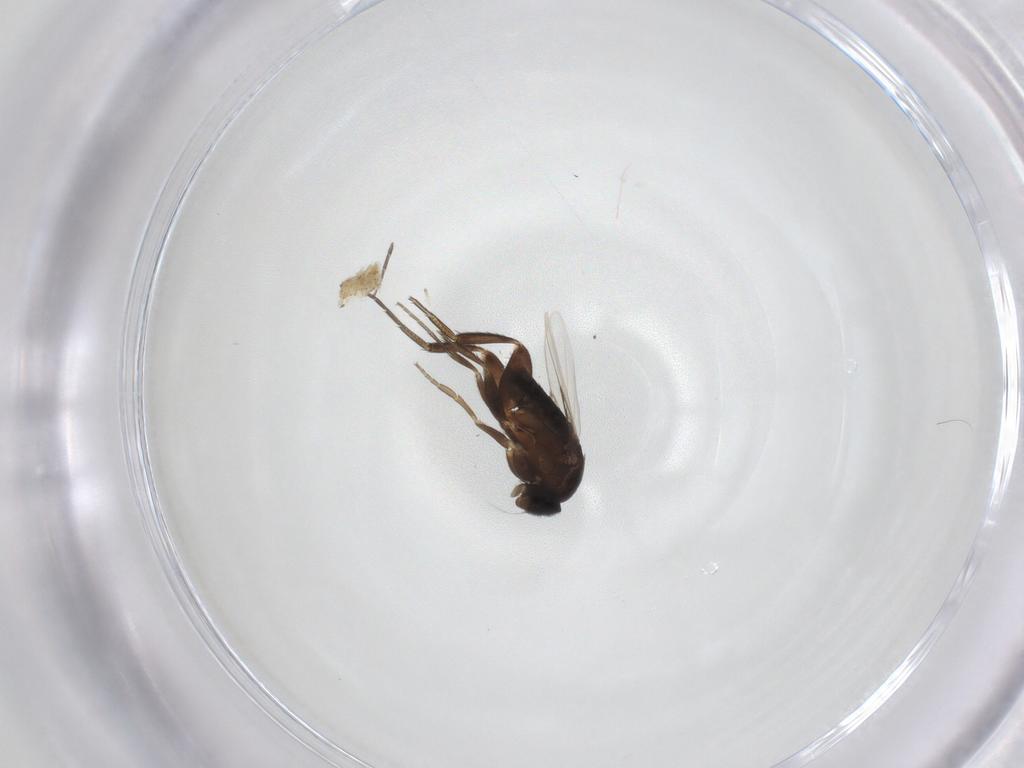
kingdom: Animalia
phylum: Arthropoda
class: Insecta
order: Diptera
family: Phoridae
